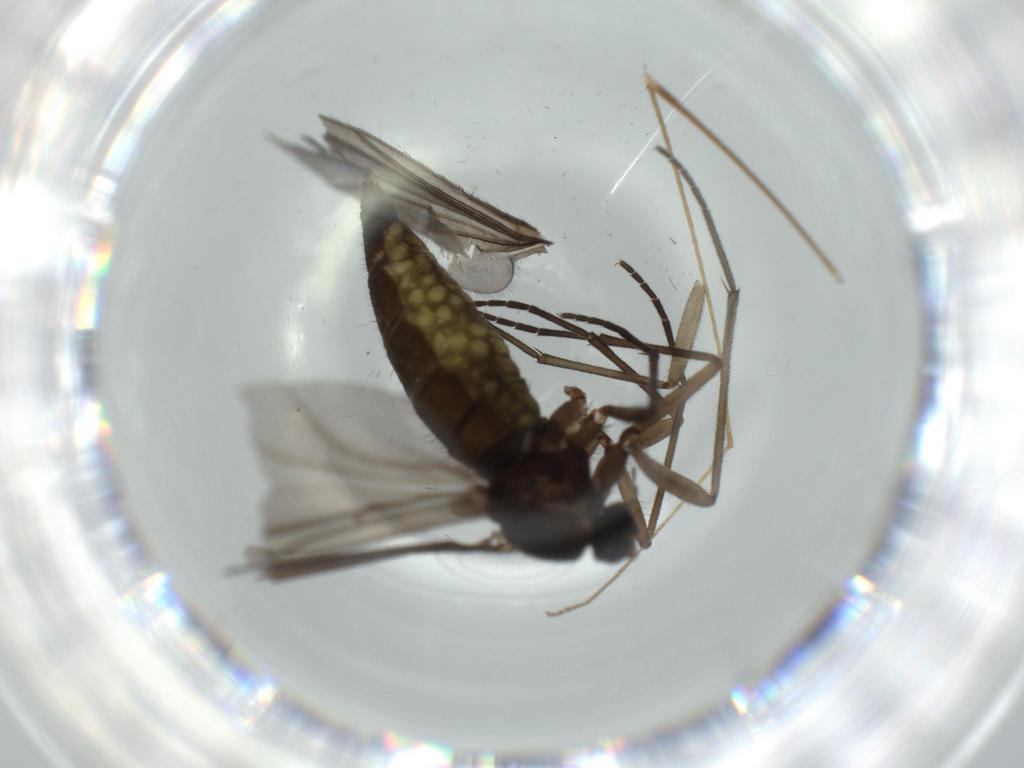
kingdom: Animalia
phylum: Arthropoda
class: Insecta
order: Diptera
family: Sciaridae
